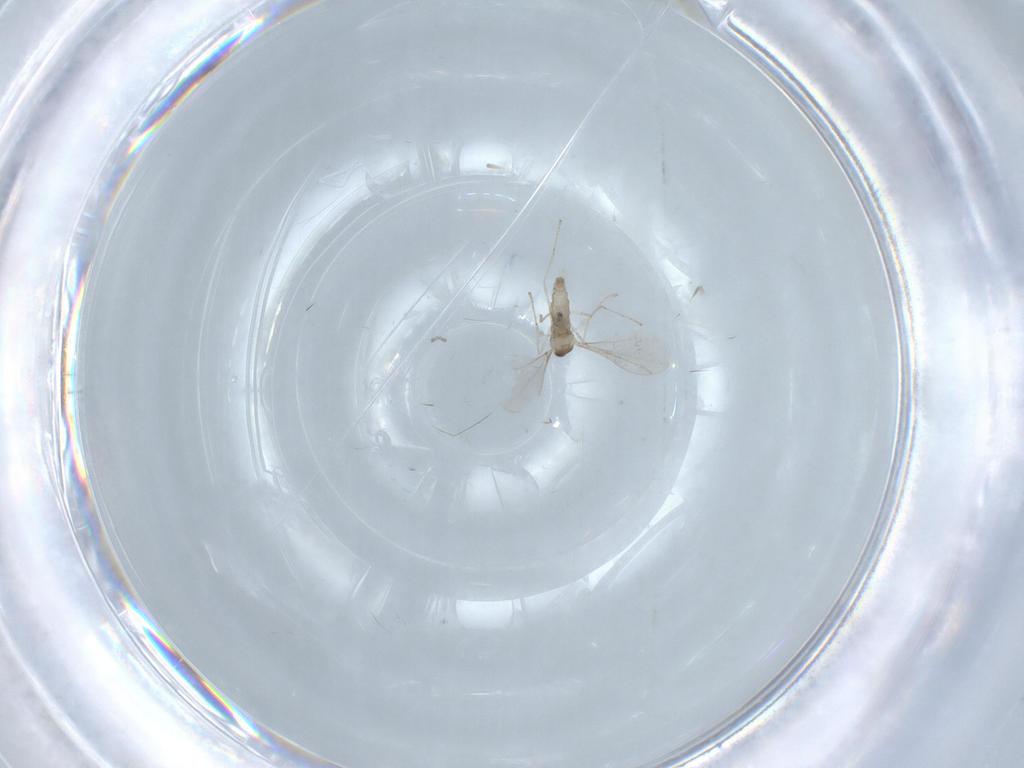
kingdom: Animalia
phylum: Arthropoda
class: Insecta
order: Diptera
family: Cecidomyiidae
